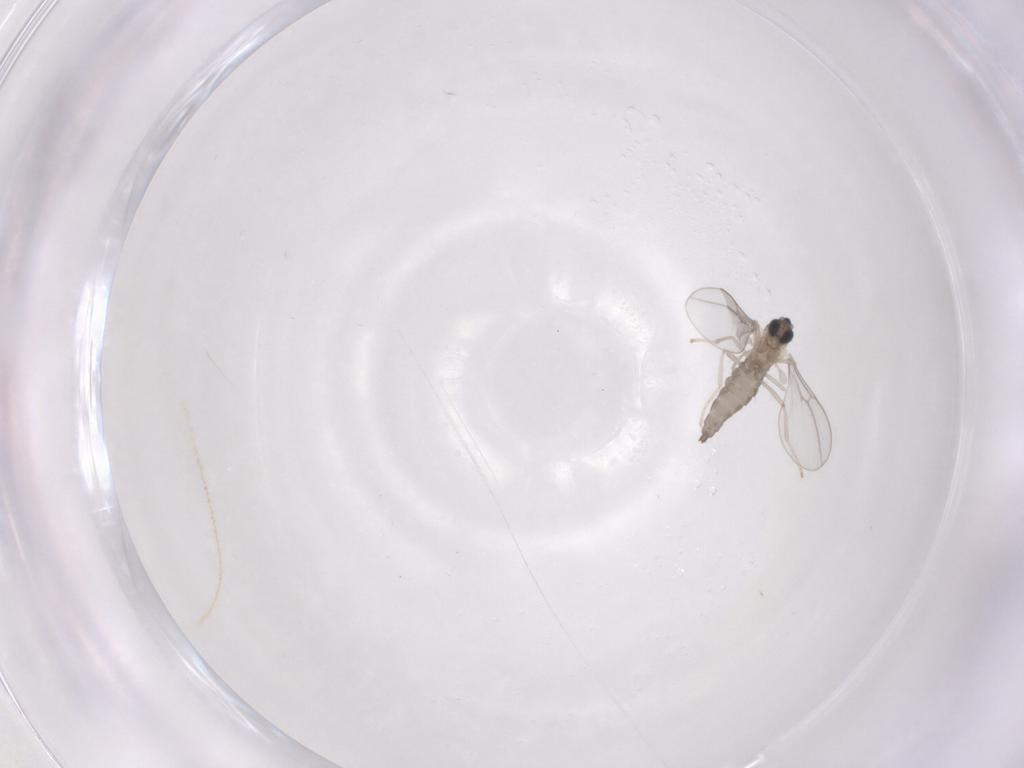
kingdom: Animalia
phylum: Arthropoda
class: Insecta
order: Diptera
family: Cecidomyiidae
